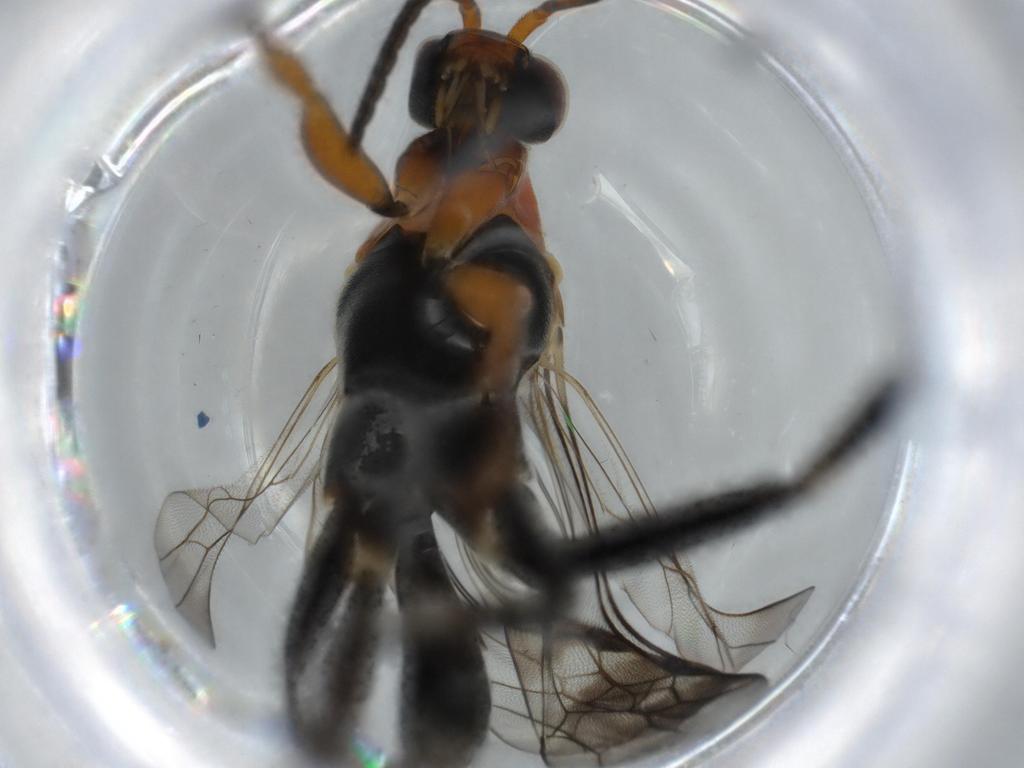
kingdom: Animalia
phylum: Arthropoda
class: Insecta
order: Hymenoptera
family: Pompilidae
